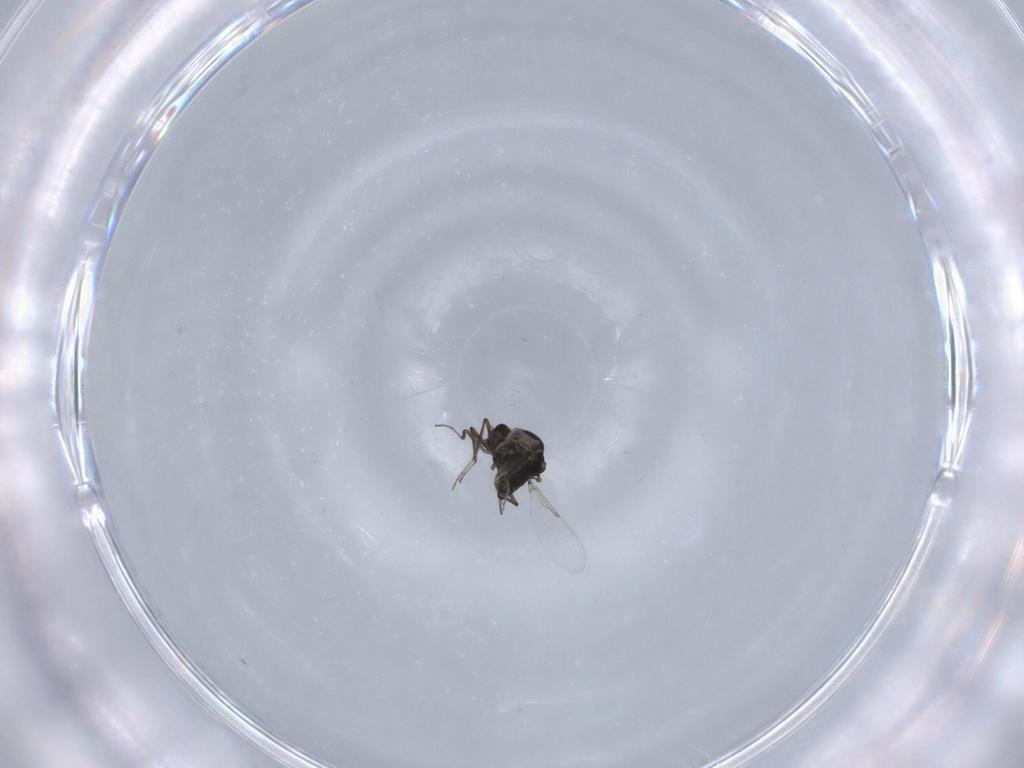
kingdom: Animalia
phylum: Arthropoda
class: Insecta
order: Diptera
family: Ceratopogonidae
